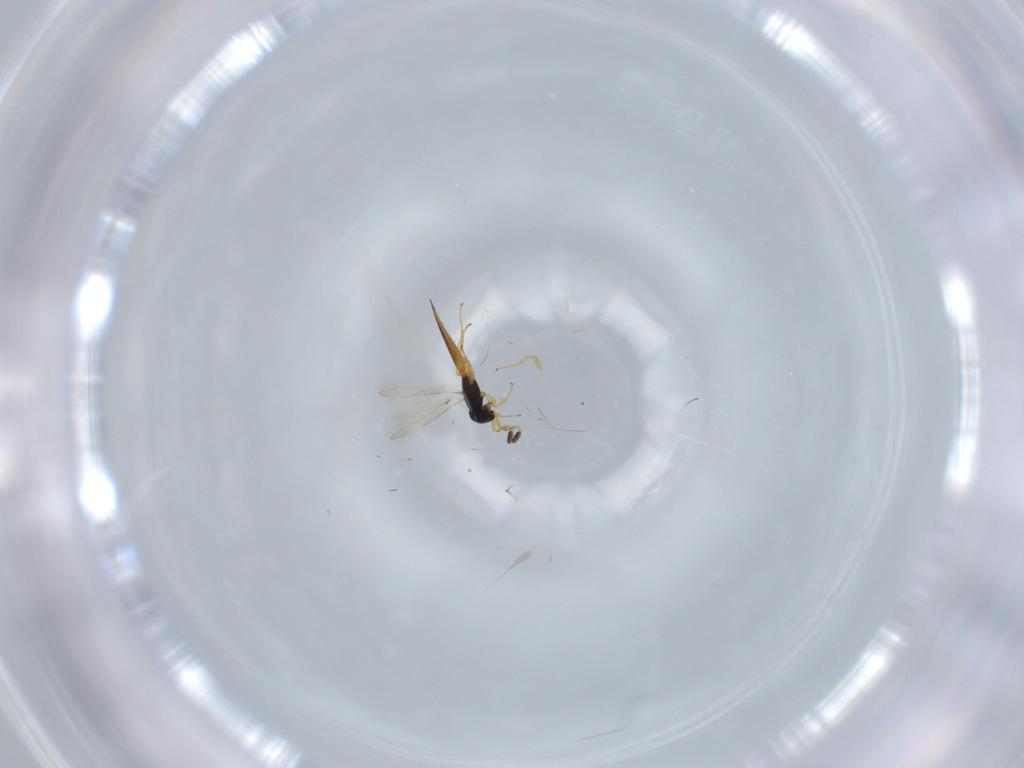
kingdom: Animalia
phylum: Arthropoda
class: Insecta
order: Hymenoptera
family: Scelionidae
